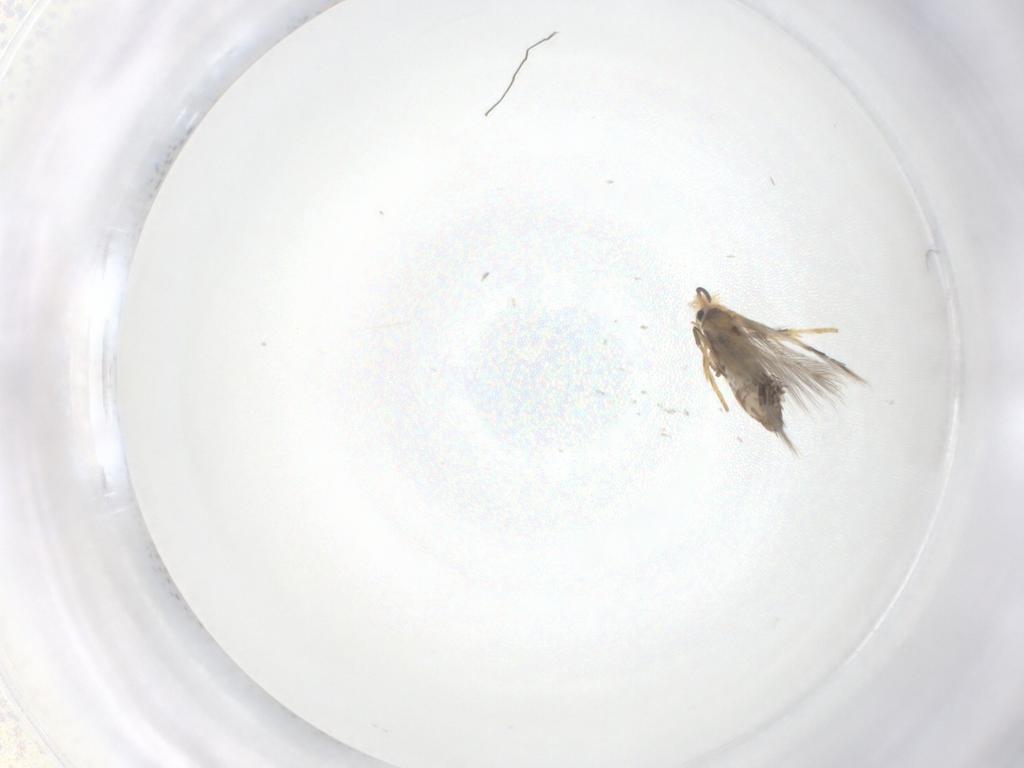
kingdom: Animalia
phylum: Arthropoda
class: Insecta
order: Lepidoptera
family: Nepticulidae
